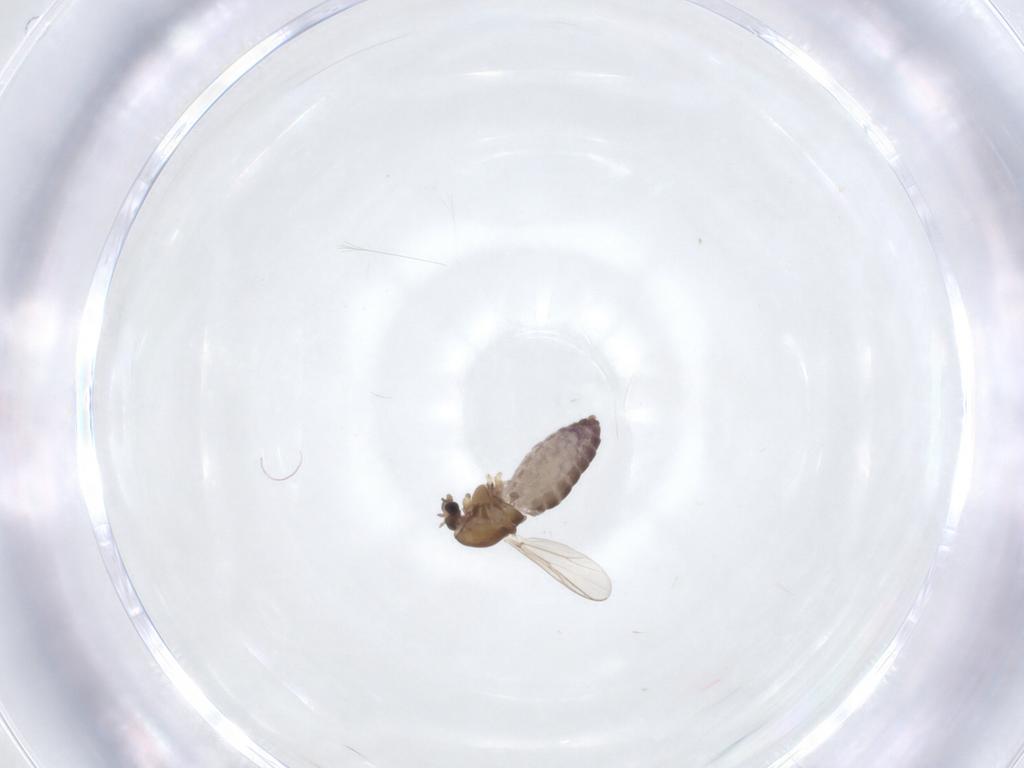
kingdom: Animalia
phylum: Arthropoda
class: Insecta
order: Diptera
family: Chironomidae
